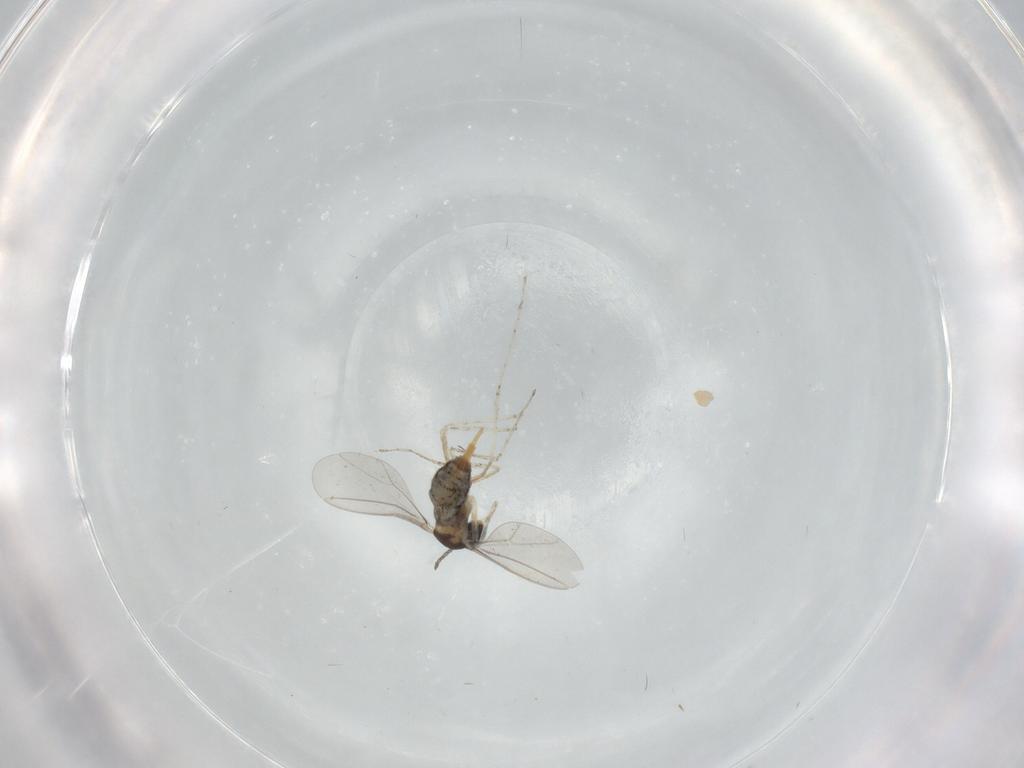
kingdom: Animalia
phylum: Arthropoda
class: Insecta
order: Diptera
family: Cecidomyiidae
